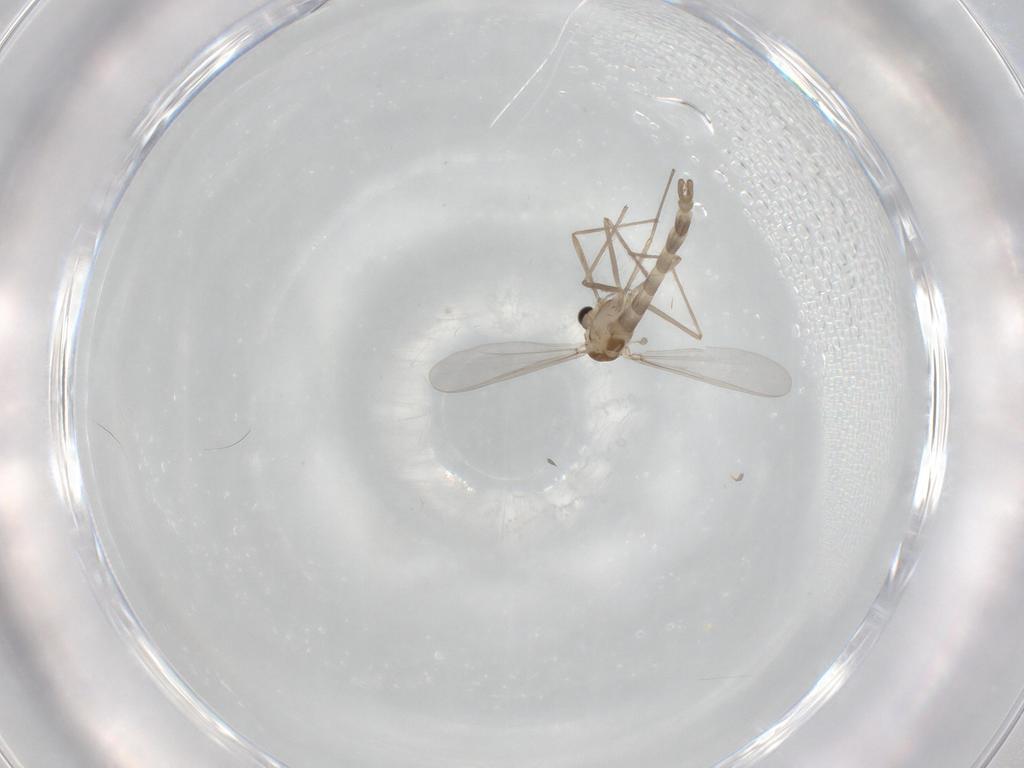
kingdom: Animalia
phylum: Arthropoda
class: Insecta
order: Diptera
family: Chironomidae
